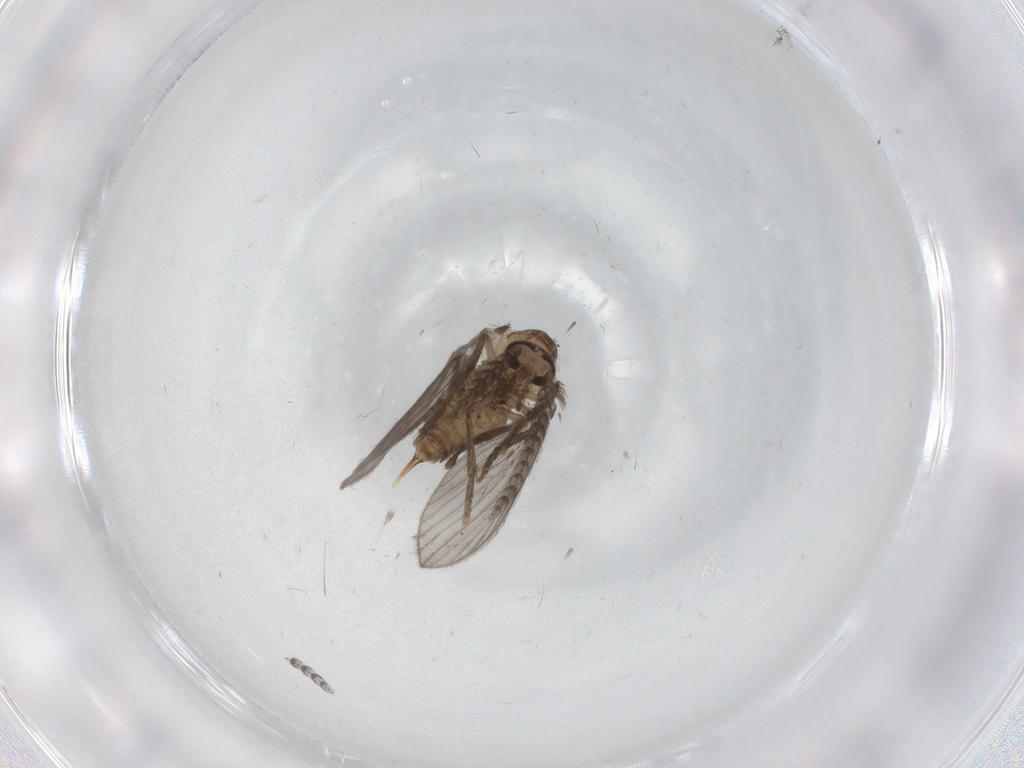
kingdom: Animalia
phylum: Arthropoda
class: Insecta
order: Diptera
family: Psychodidae
